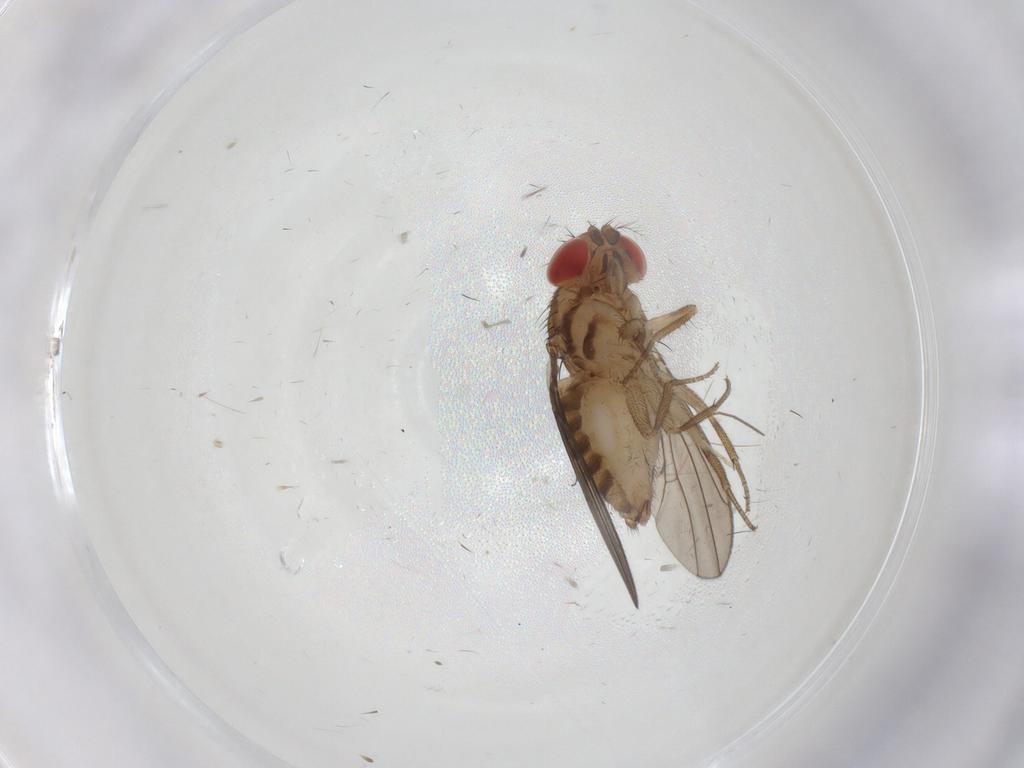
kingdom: Animalia
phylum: Arthropoda
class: Insecta
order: Diptera
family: Drosophilidae
